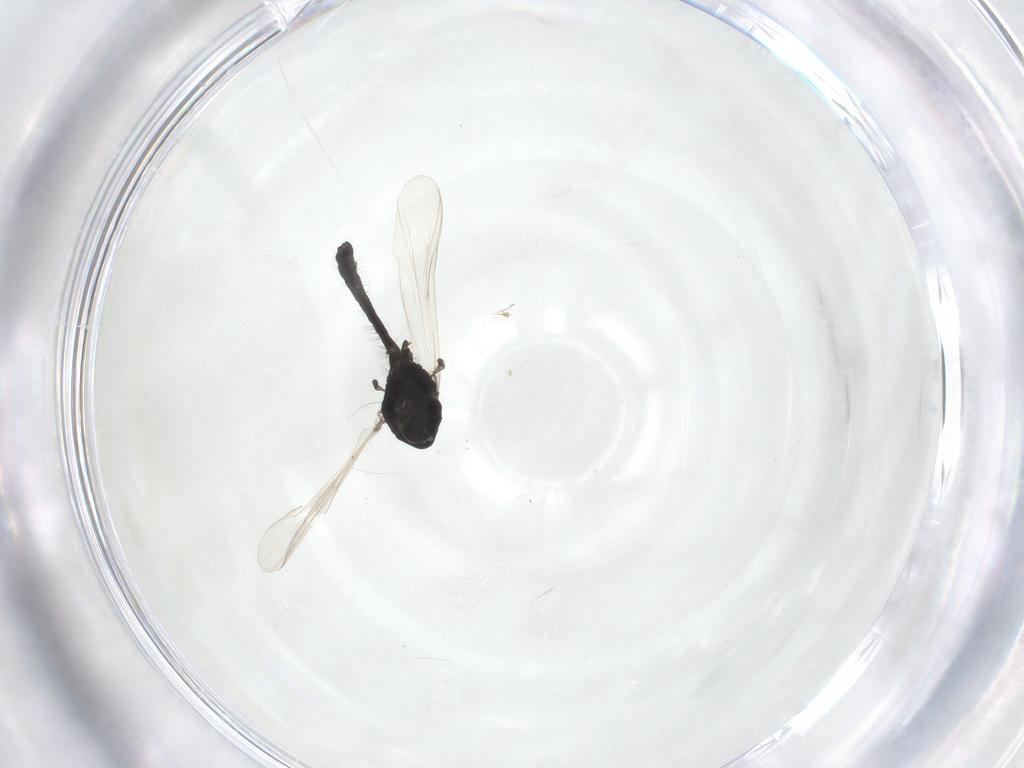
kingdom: Animalia
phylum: Arthropoda
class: Insecta
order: Diptera
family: Chironomidae
